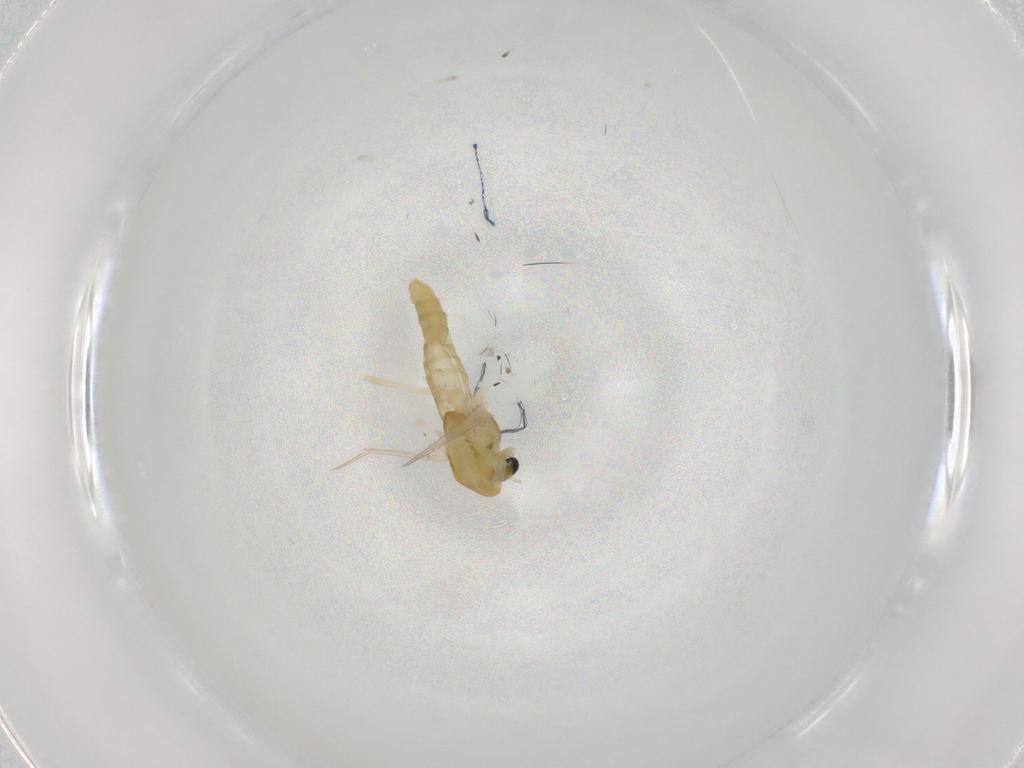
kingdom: Animalia
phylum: Arthropoda
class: Insecta
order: Diptera
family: Chironomidae
